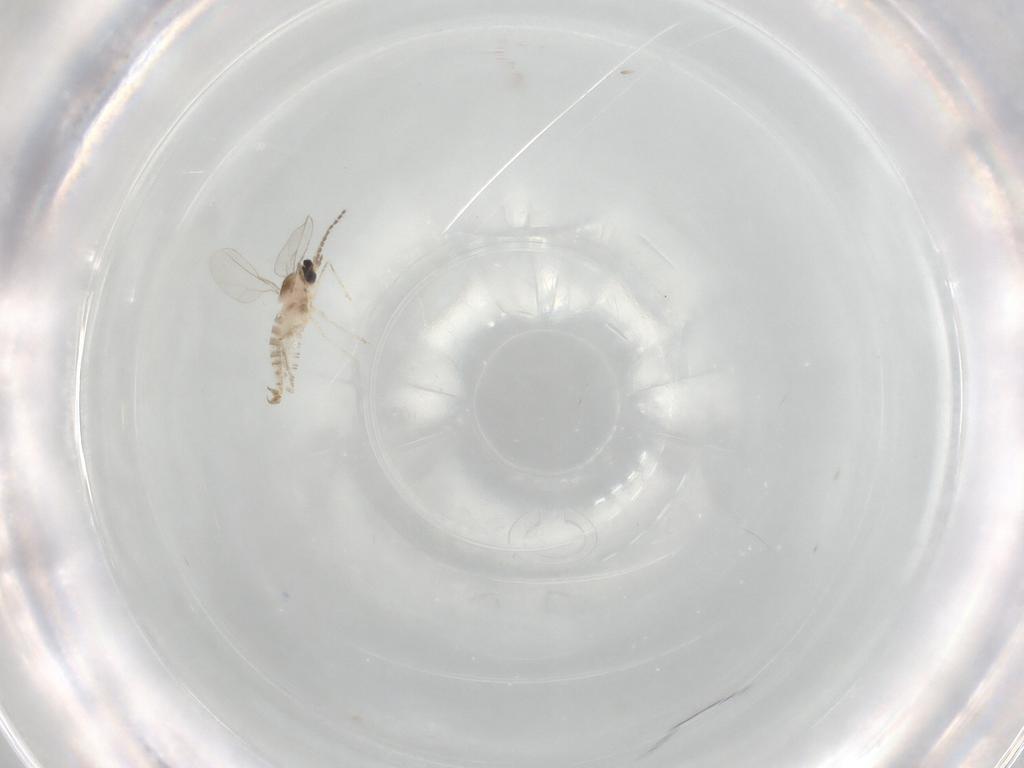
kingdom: Animalia
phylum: Arthropoda
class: Insecta
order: Diptera
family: Cecidomyiidae
